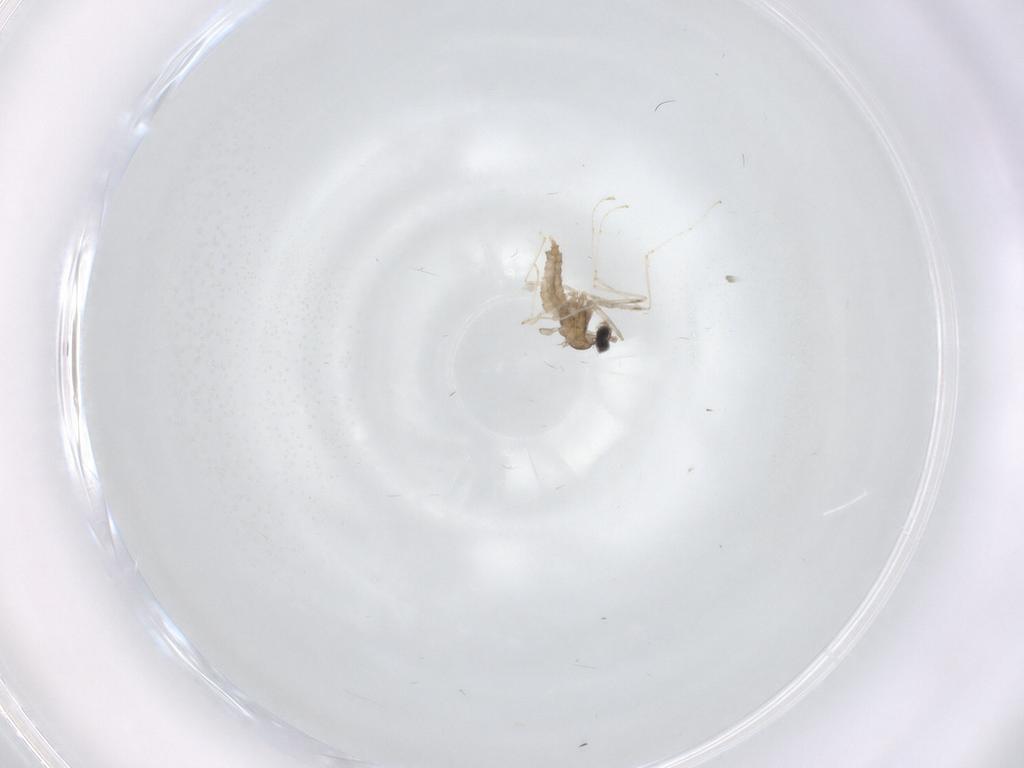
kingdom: Animalia
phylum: Arthropoda
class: Insecta
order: Diptera
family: Cecidomyiidae
